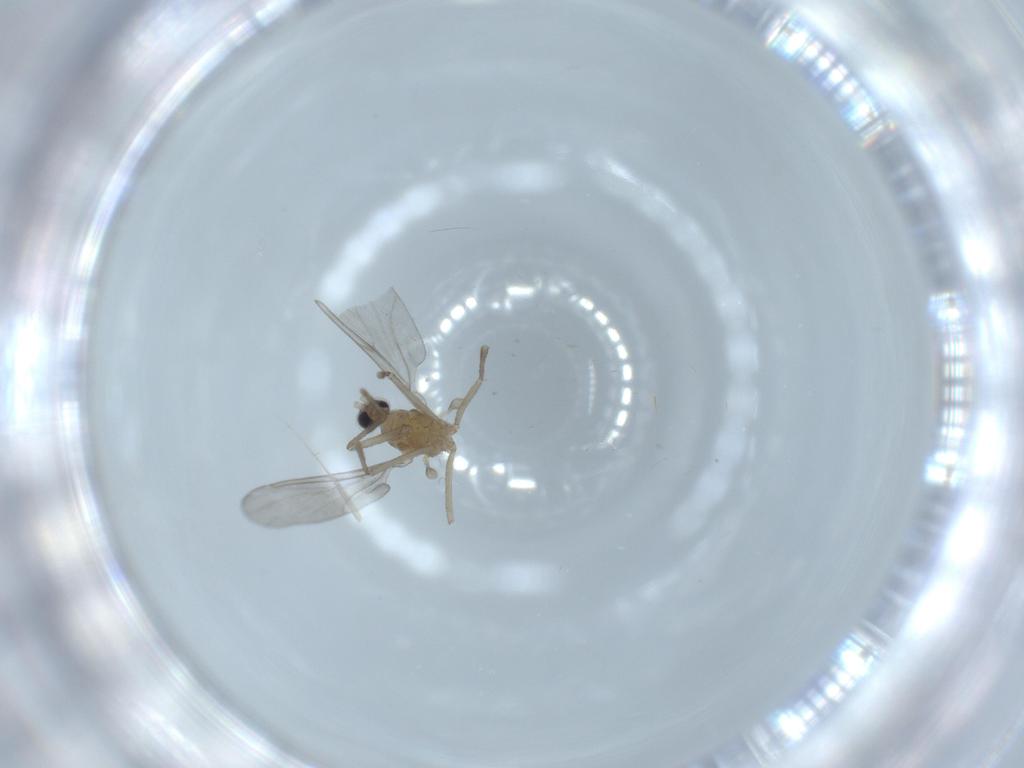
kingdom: Animalia
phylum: Arthropoda
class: Insecta
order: Diptera
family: Cecidomyiidae
